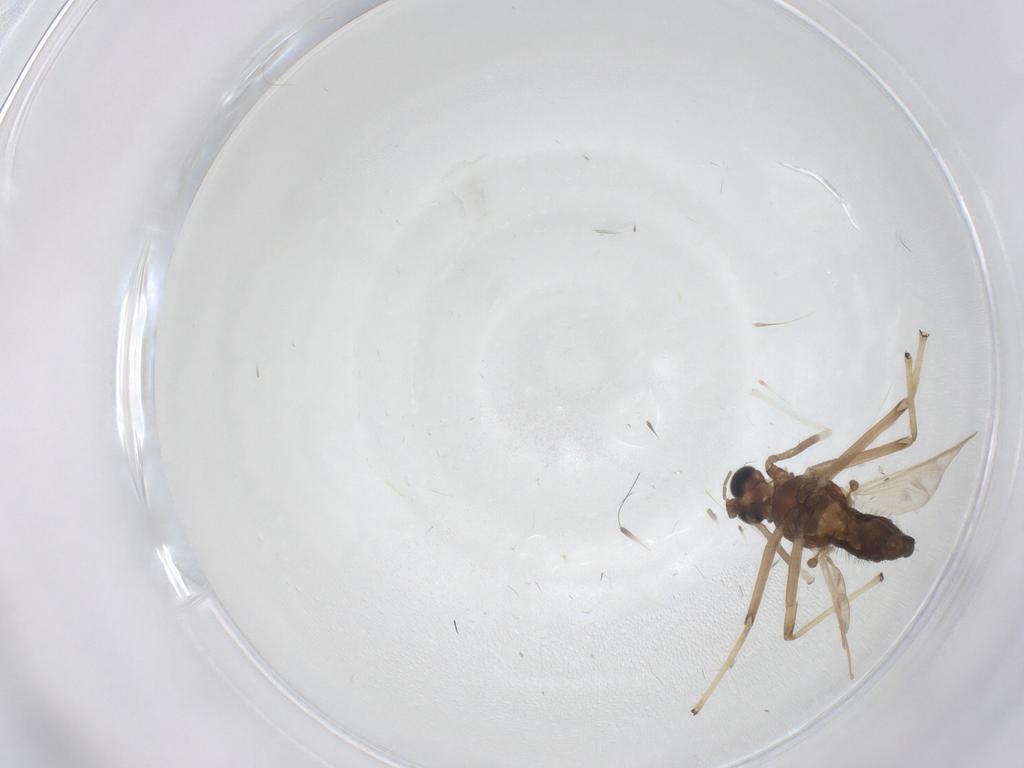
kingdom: Animalia
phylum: Arthropoda
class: Insecta
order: Diptera
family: Chironomidae
